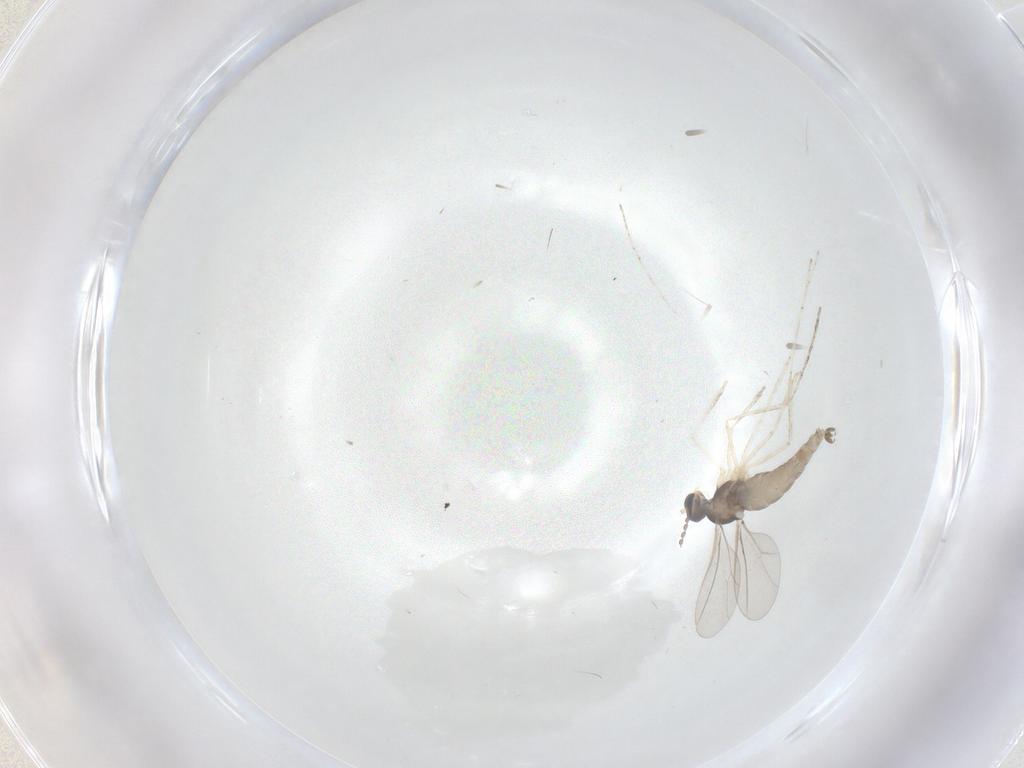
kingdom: Animalia
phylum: Arthropoda
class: Insecta
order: Diptera
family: Cecidomyiidae
